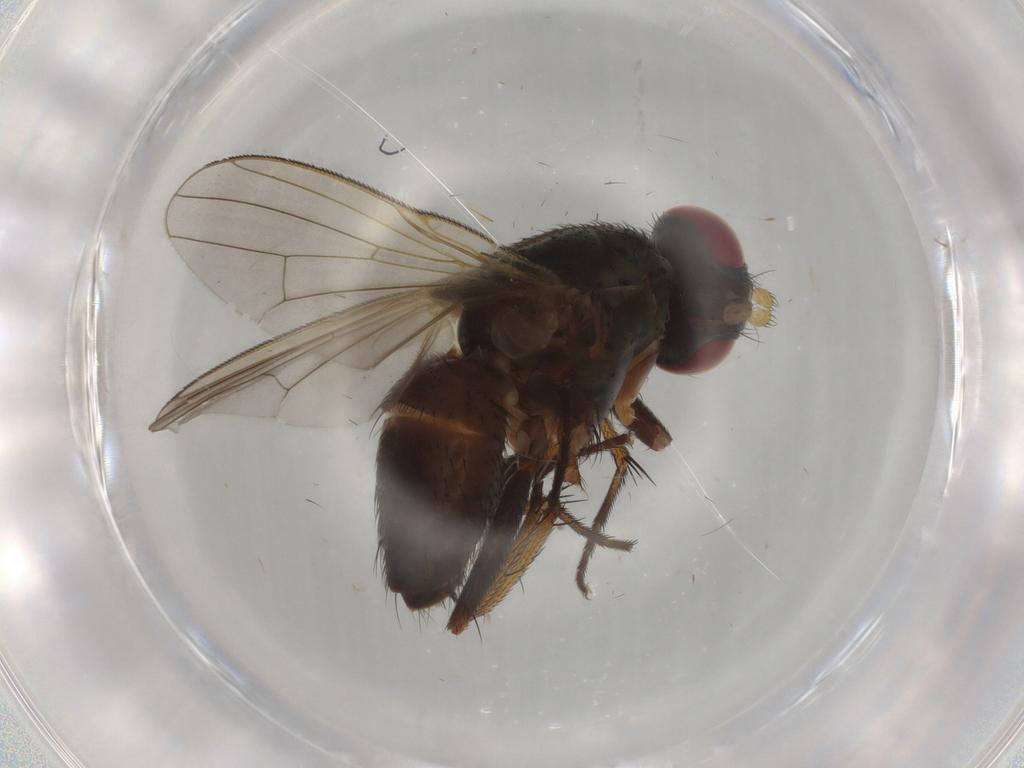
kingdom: Animalia
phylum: Arthropoda
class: Insecta
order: Diptera
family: Muscidae
